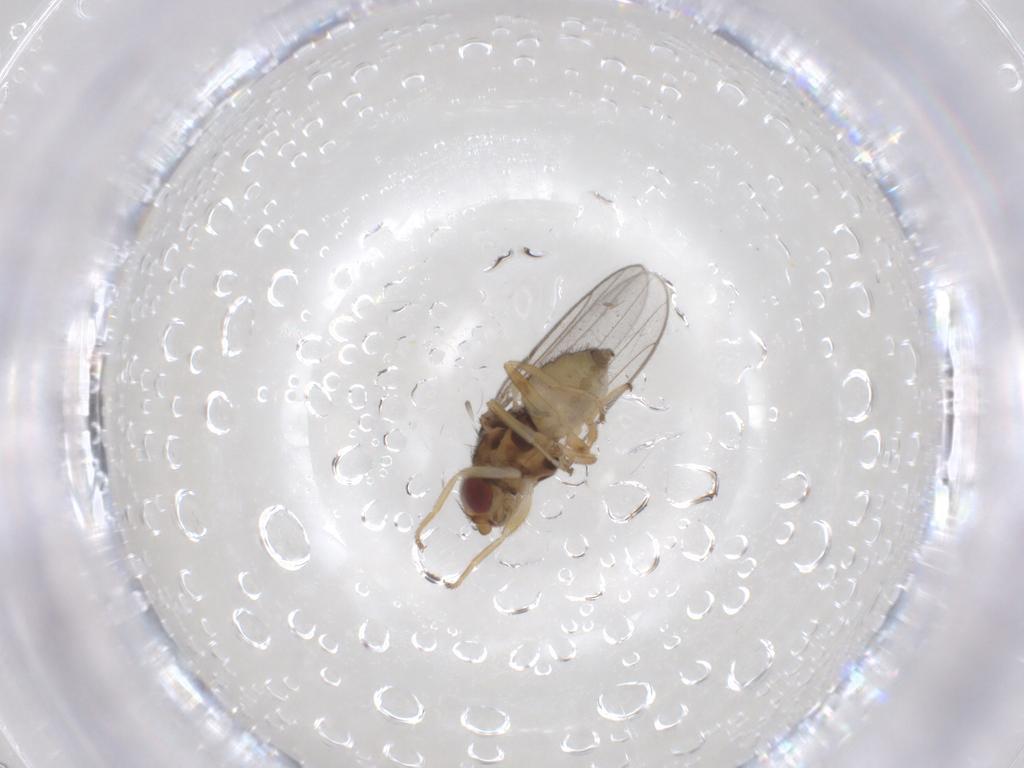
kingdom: Animalia
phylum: Arthropoda
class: Insecta
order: Diptera
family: Chloropidae
